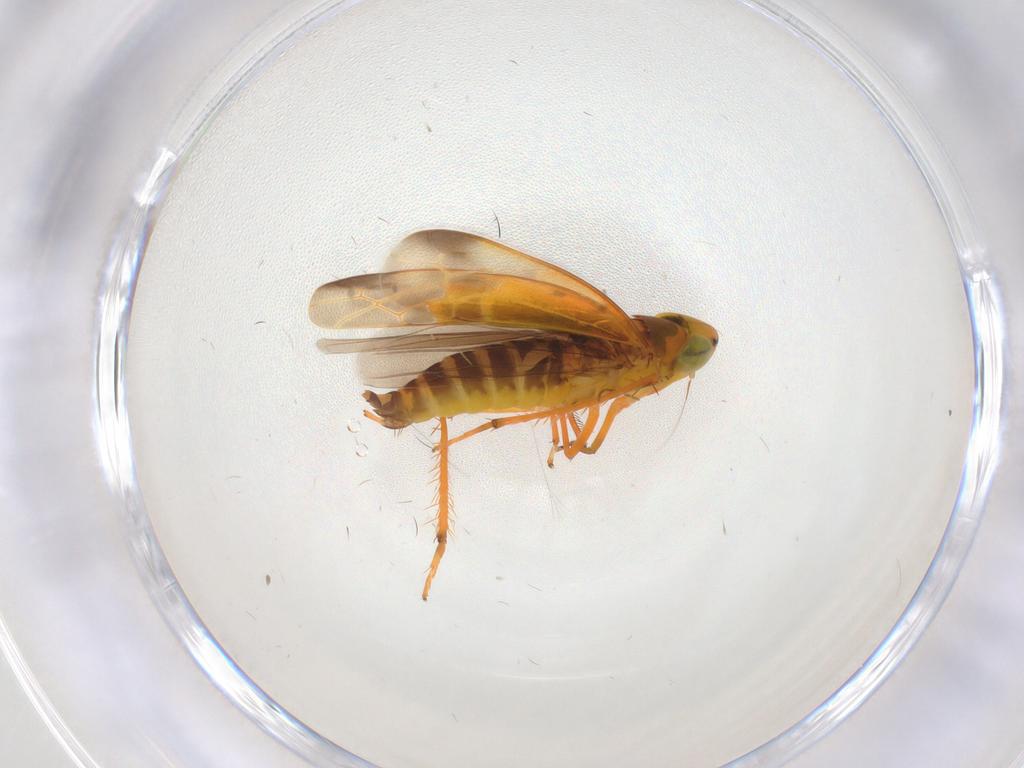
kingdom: Animalia
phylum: Arthropoda
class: Insecta
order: Hemiptera
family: Cicadellidae
